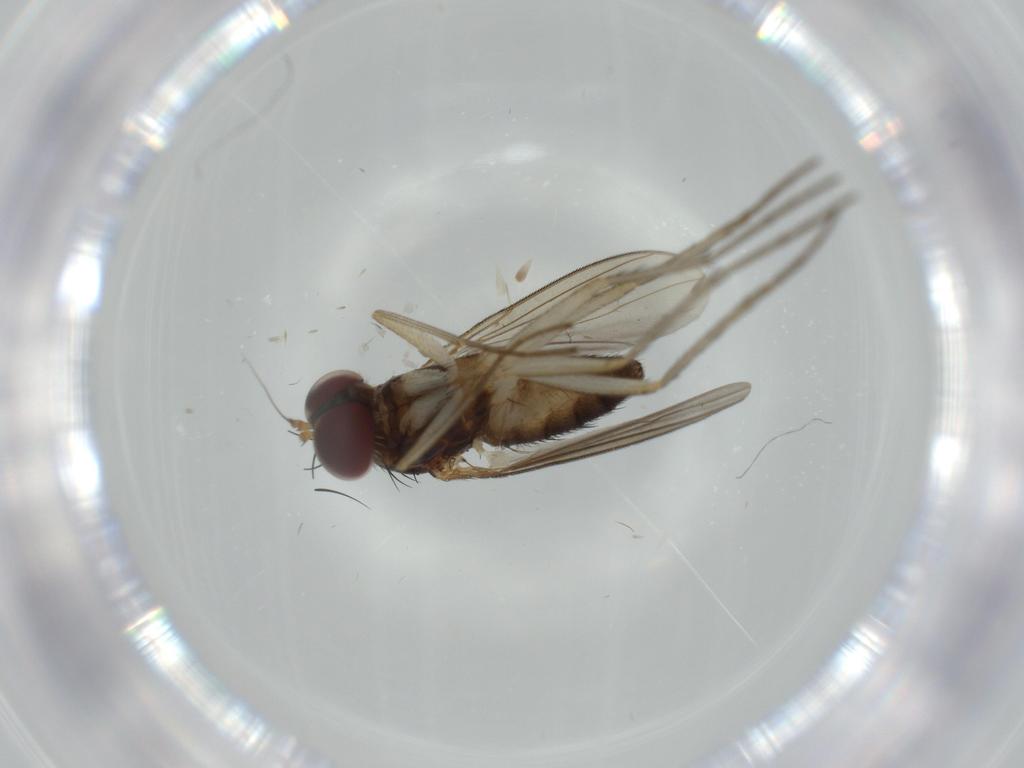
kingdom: Animalia
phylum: Arthropoda
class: Insecta
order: Diptera
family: Dolichopodidae
